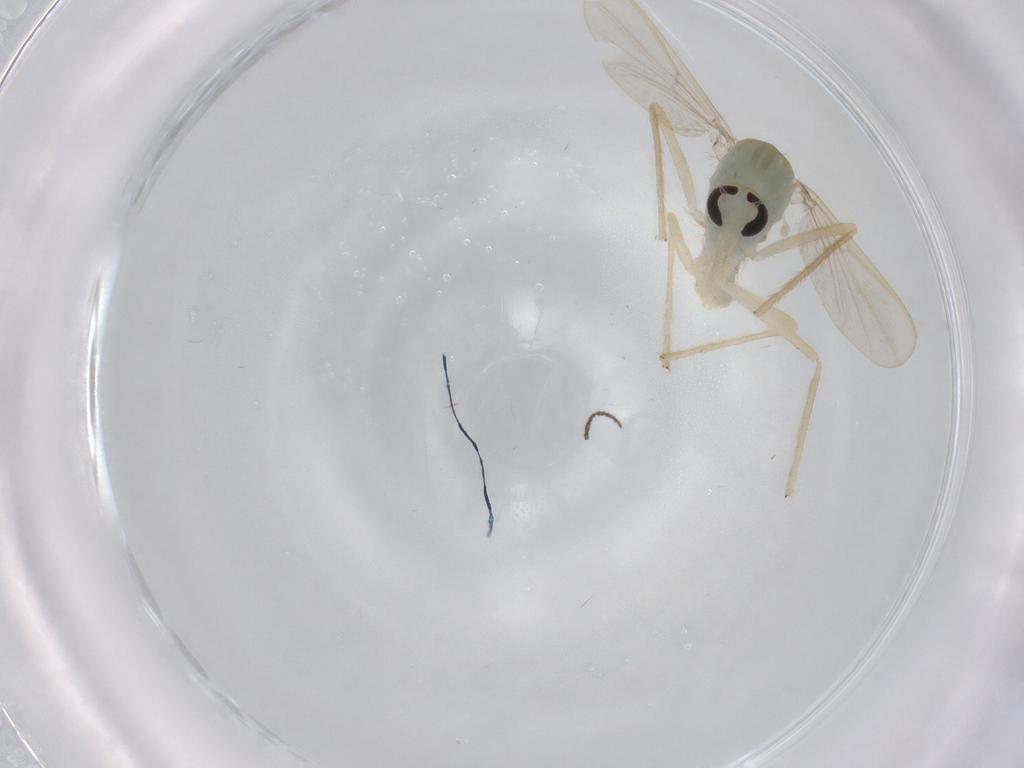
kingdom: Animalia
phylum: Arthropoda
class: Insecta
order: Diptera
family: Chironomidae
